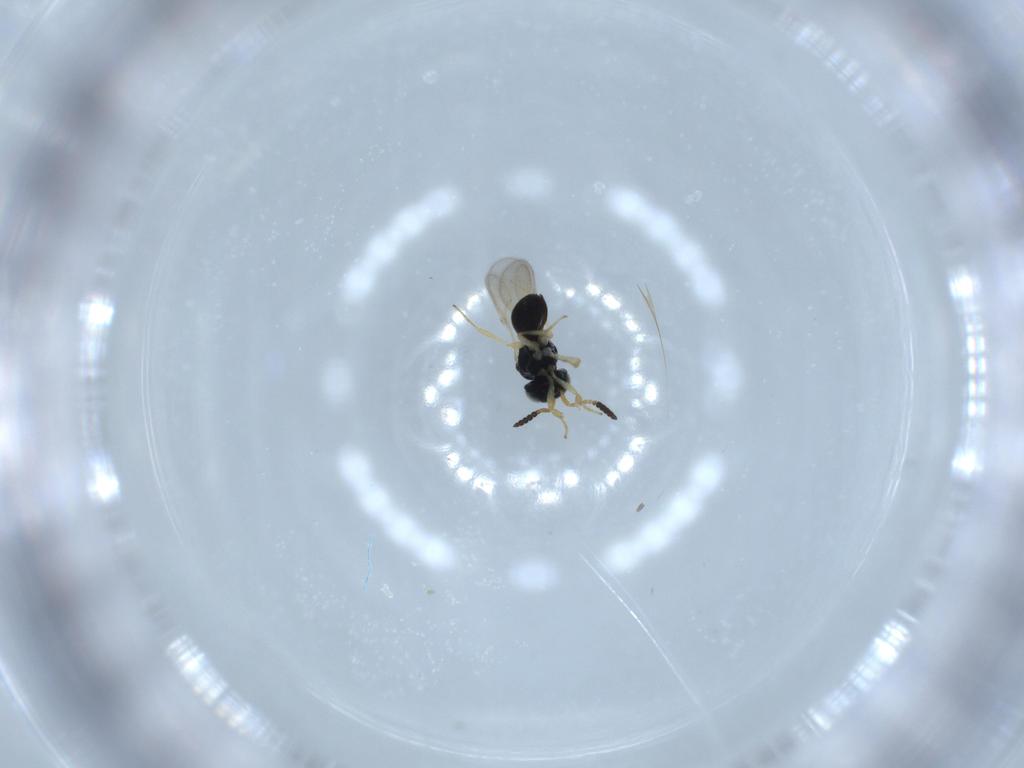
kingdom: Animalia
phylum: Arthropoda
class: Insecta
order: Hymenoptera
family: Scelionidae
